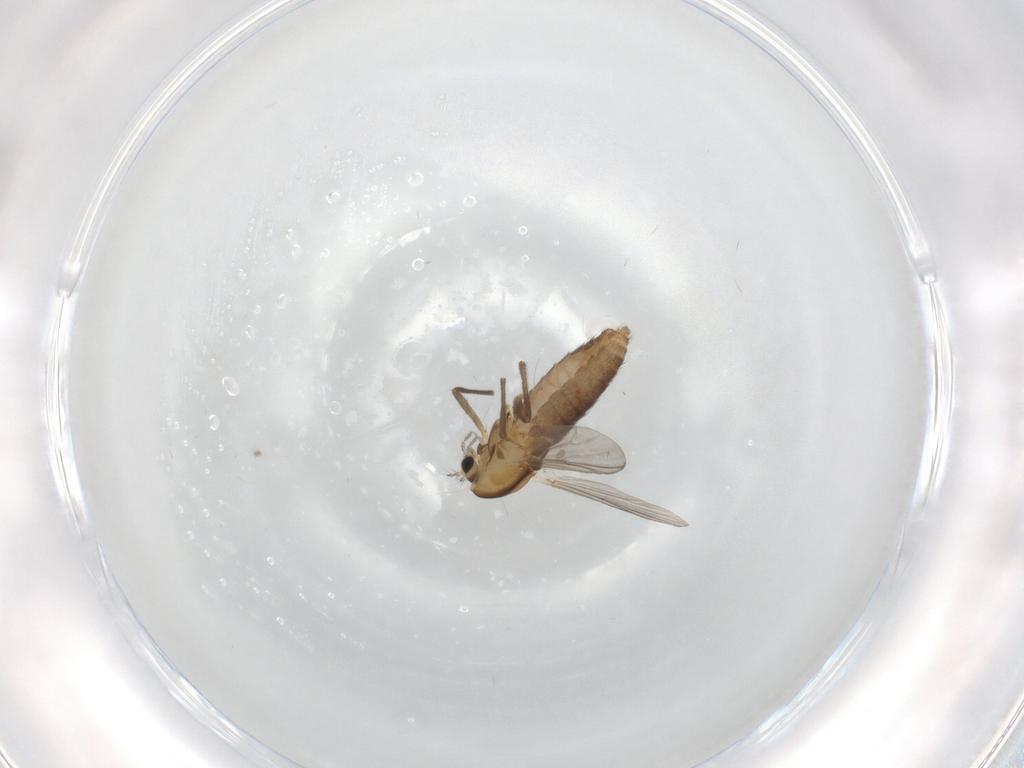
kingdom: Animalia
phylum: Arthropoda
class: Insecta
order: Diptera
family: Chironomidae
